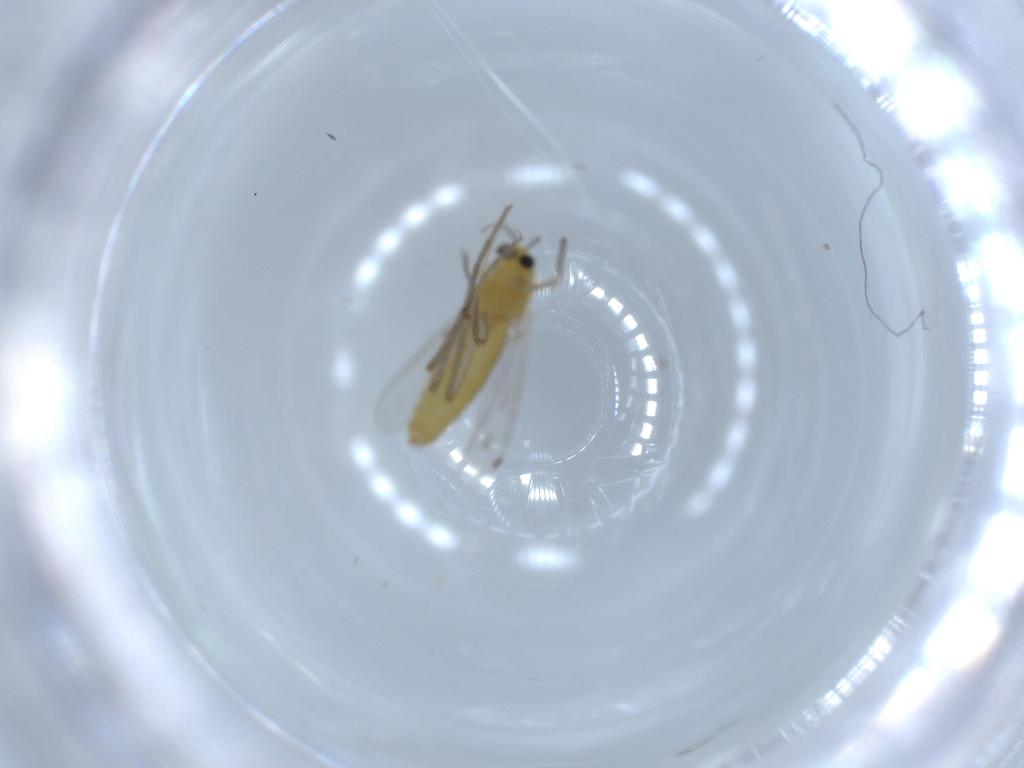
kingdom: Animalia
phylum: Arthropoda
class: Insecta
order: Diptera
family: Chironomidae
